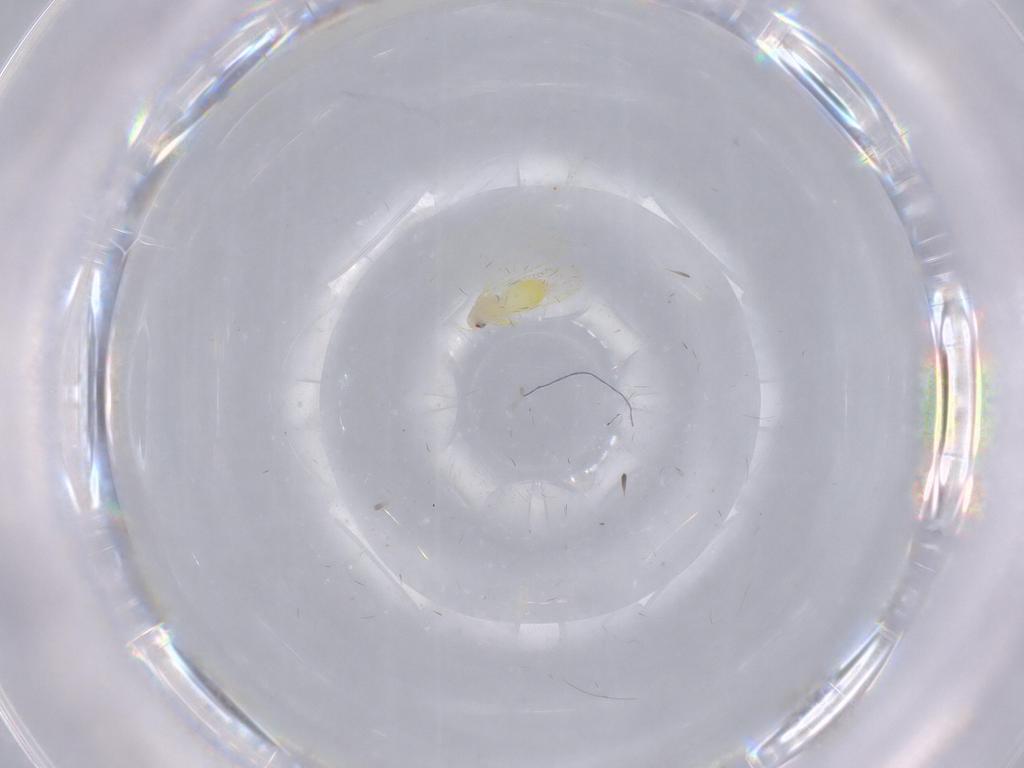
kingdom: Animalia
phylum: Arthropoda
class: Insecta
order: Hemiptera
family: Aleyrodidae
